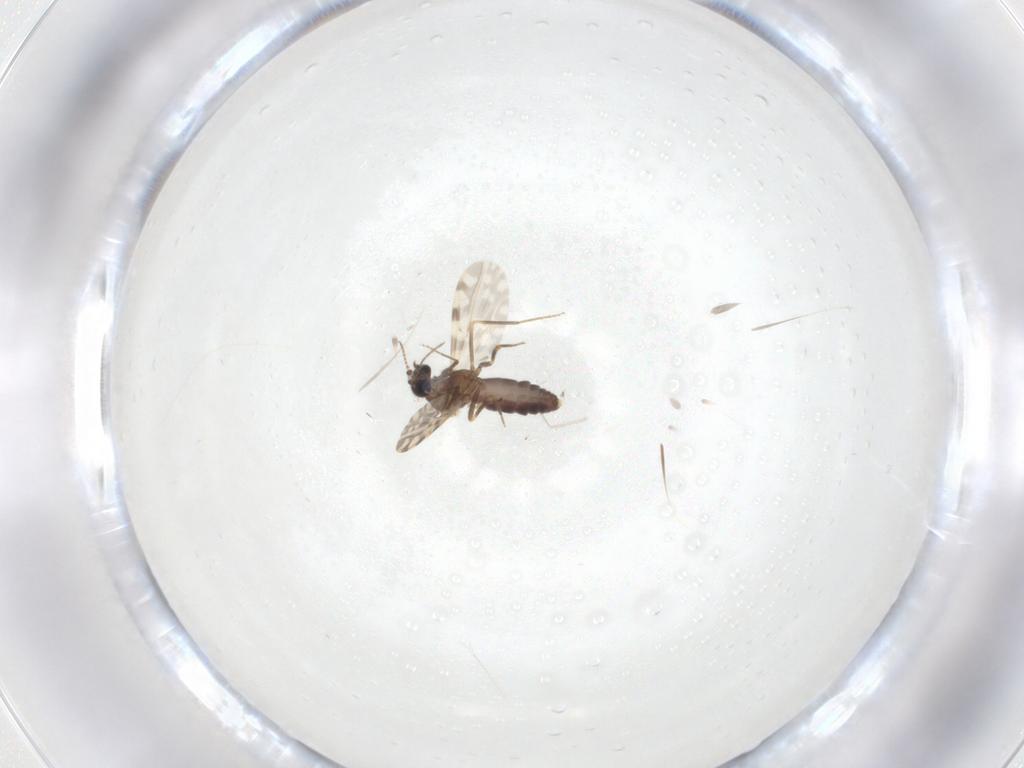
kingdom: Animalia
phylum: Arthropoda
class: Insecta
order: Diptera
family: Ceratopogonidae
